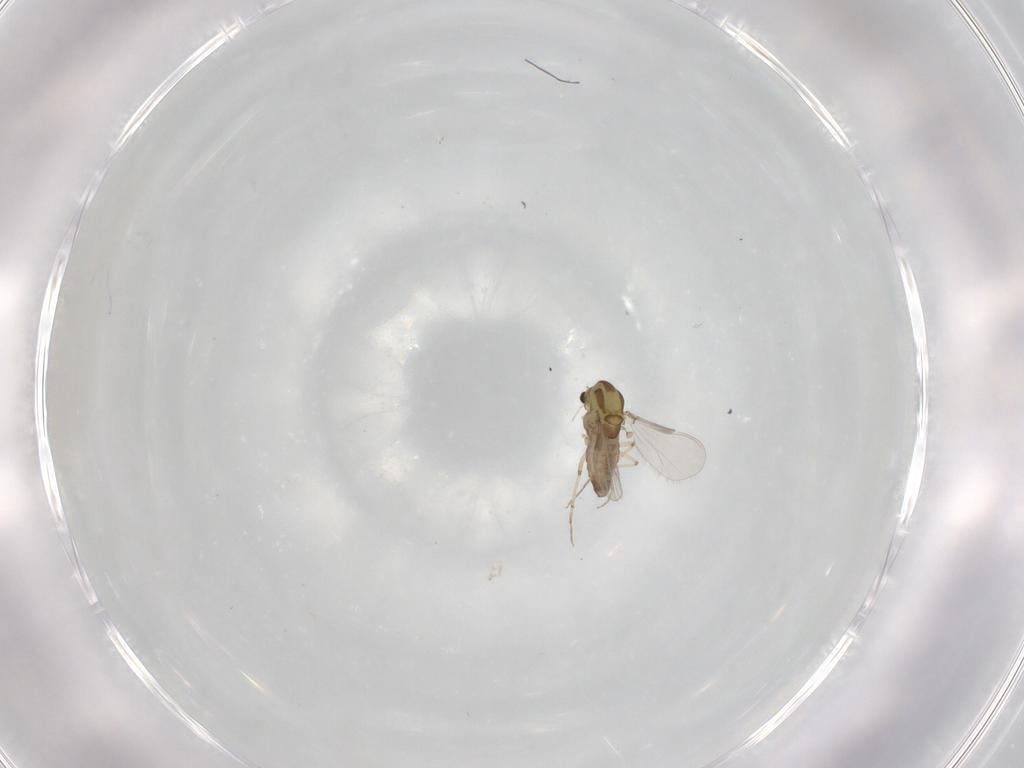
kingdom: Animalia
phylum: Arthropoda
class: Insecta
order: Diptera
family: Chironomidae
